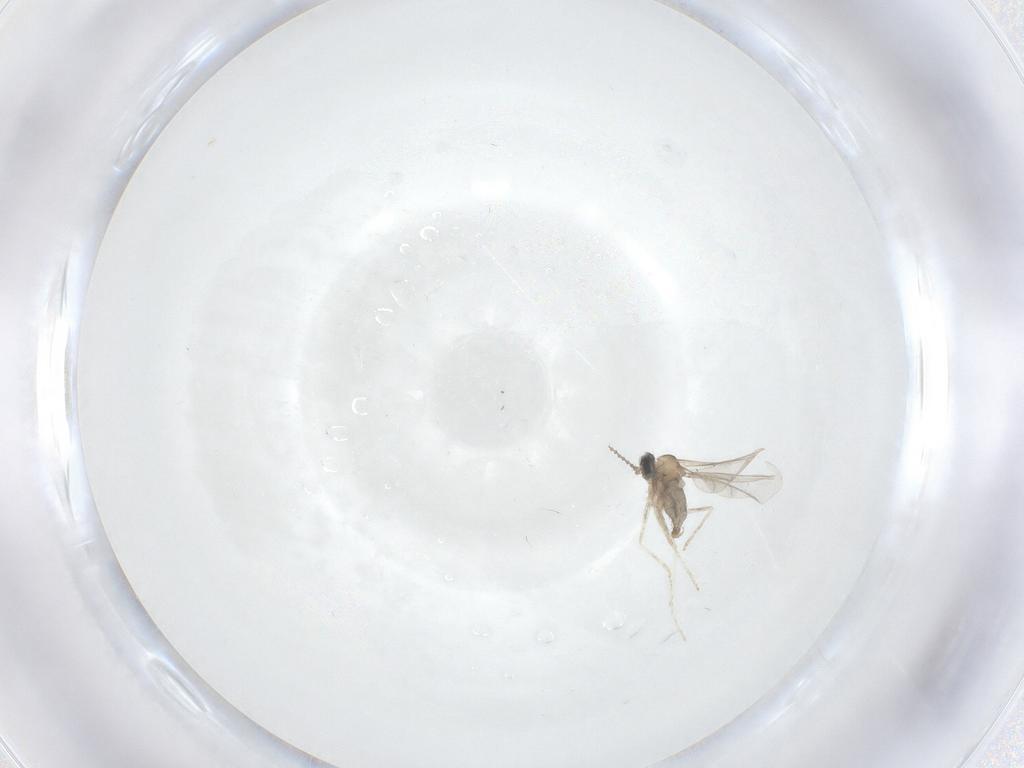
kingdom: Animalia
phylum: Arthropoda
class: Insecta
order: Diptera
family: Cecidomyiidae
